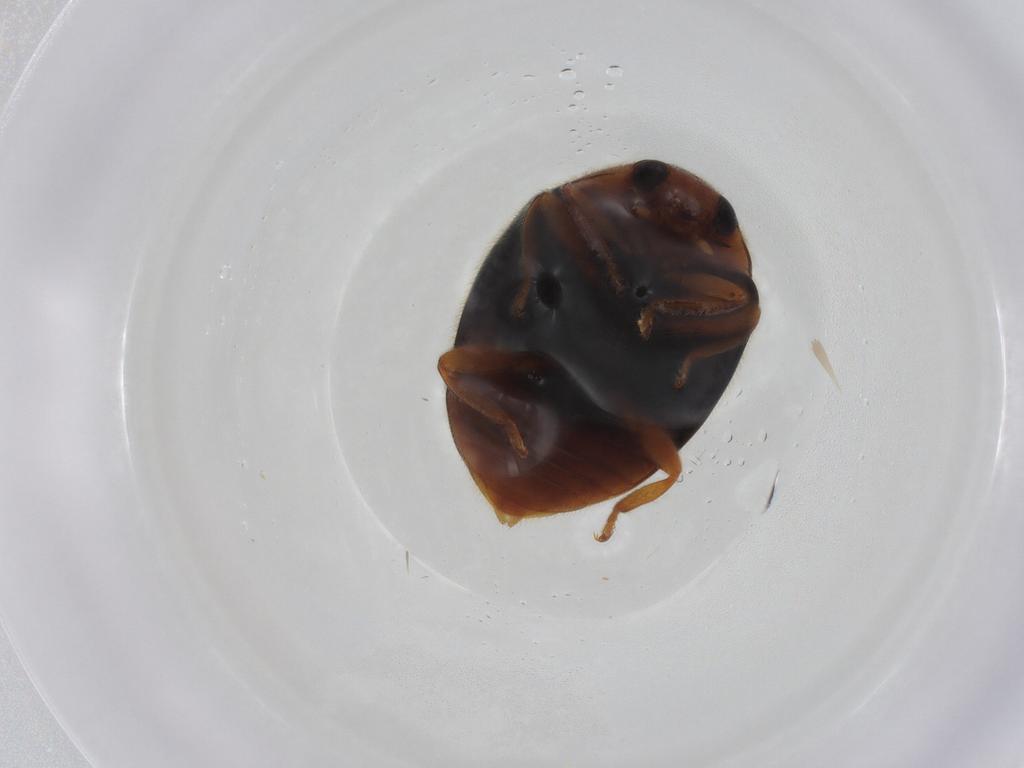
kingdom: Animalia
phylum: Arthropoda
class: Insecta
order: Coleoptera
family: Coccinellidae
